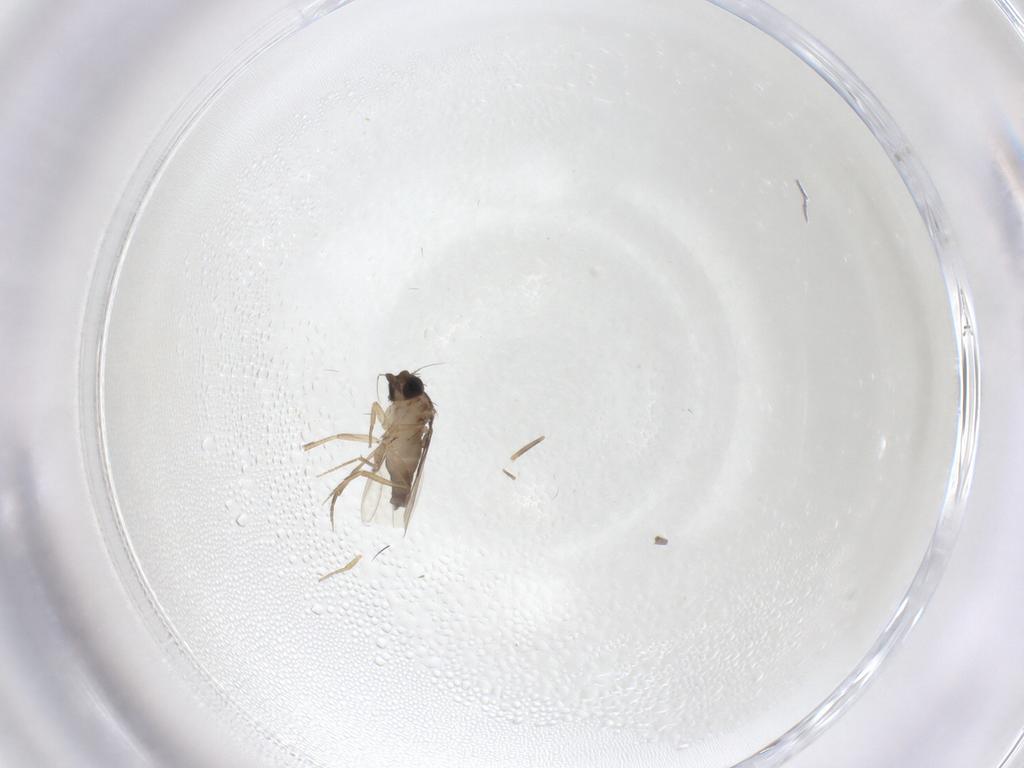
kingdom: Animalia
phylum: Arthropoda
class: Insecta
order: Diptera
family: Phoridae
